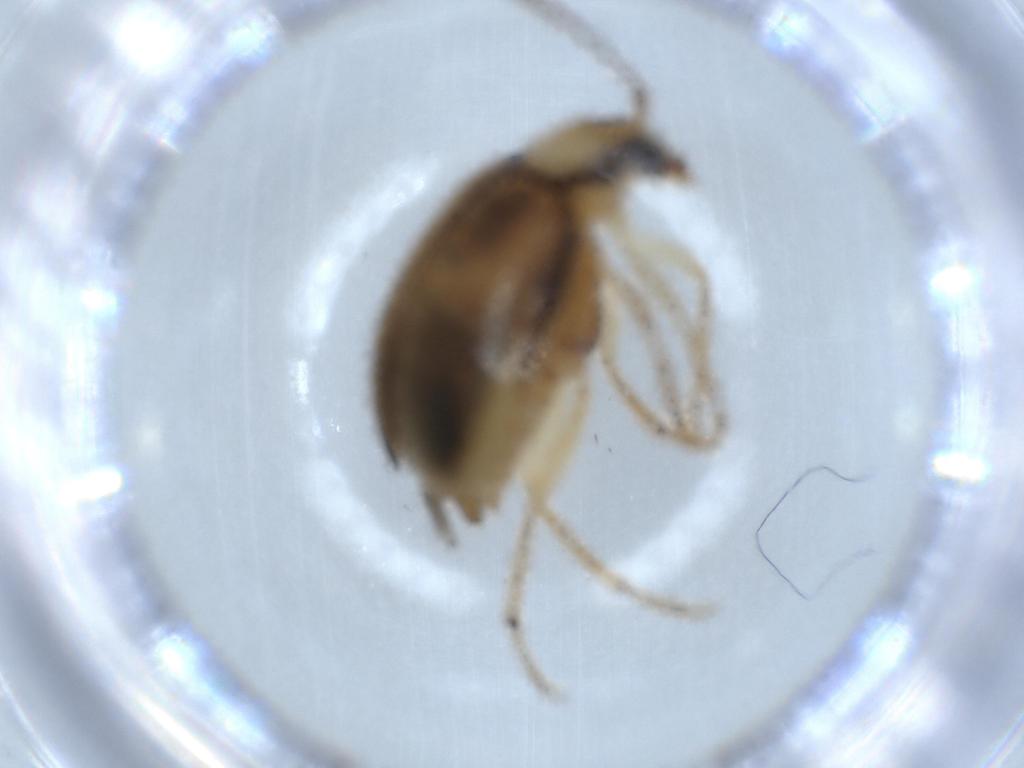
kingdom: Animalia
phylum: Arthropoda
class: Insecta
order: Coleoptera
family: Chrysomelidae
